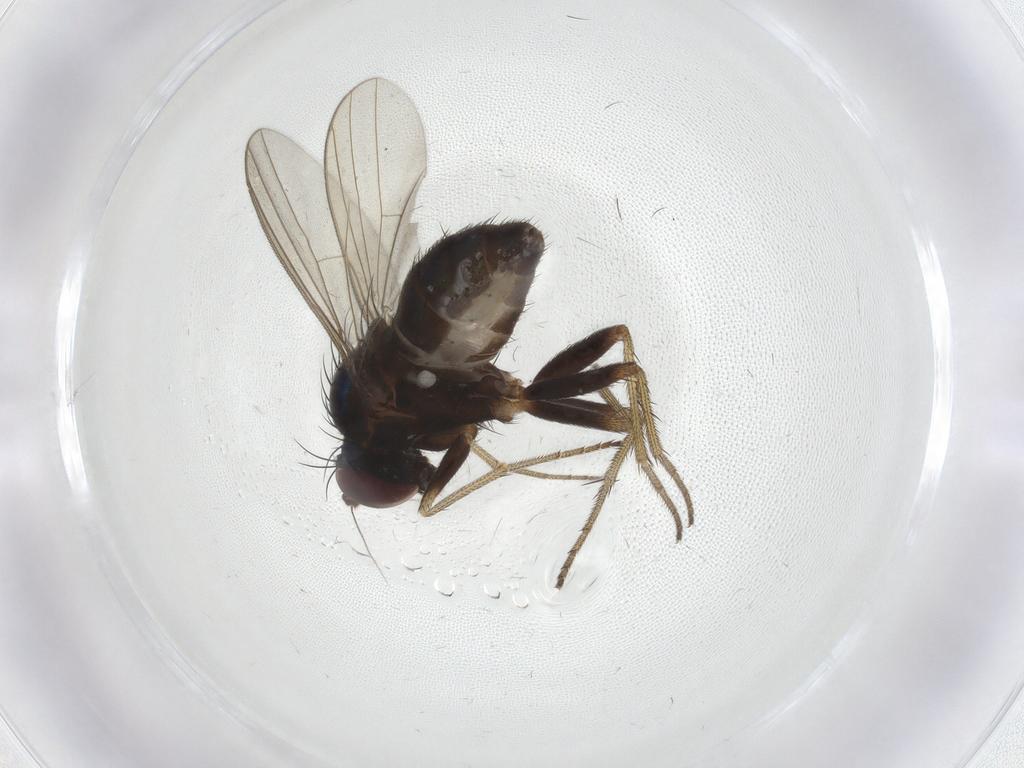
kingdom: Animalia
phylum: Arthropoda
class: Insecta
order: Diptera
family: Dolichopodidae
